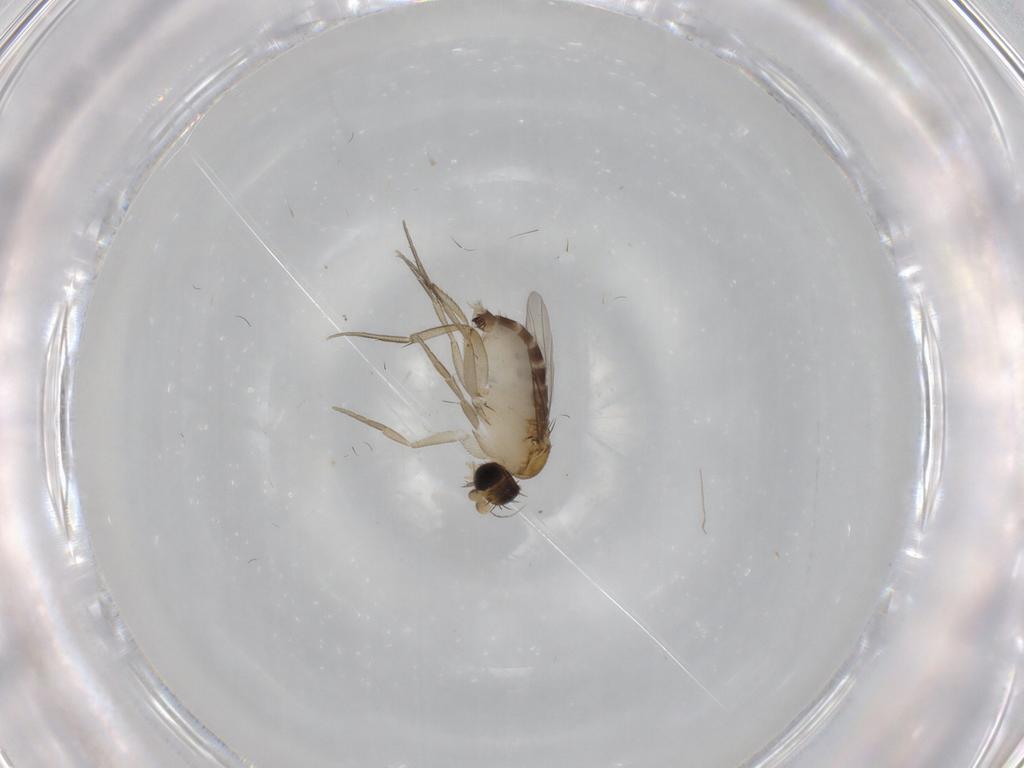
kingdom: Animalia
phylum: Arthropoda
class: Insecta
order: Diptera
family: Phoridae
